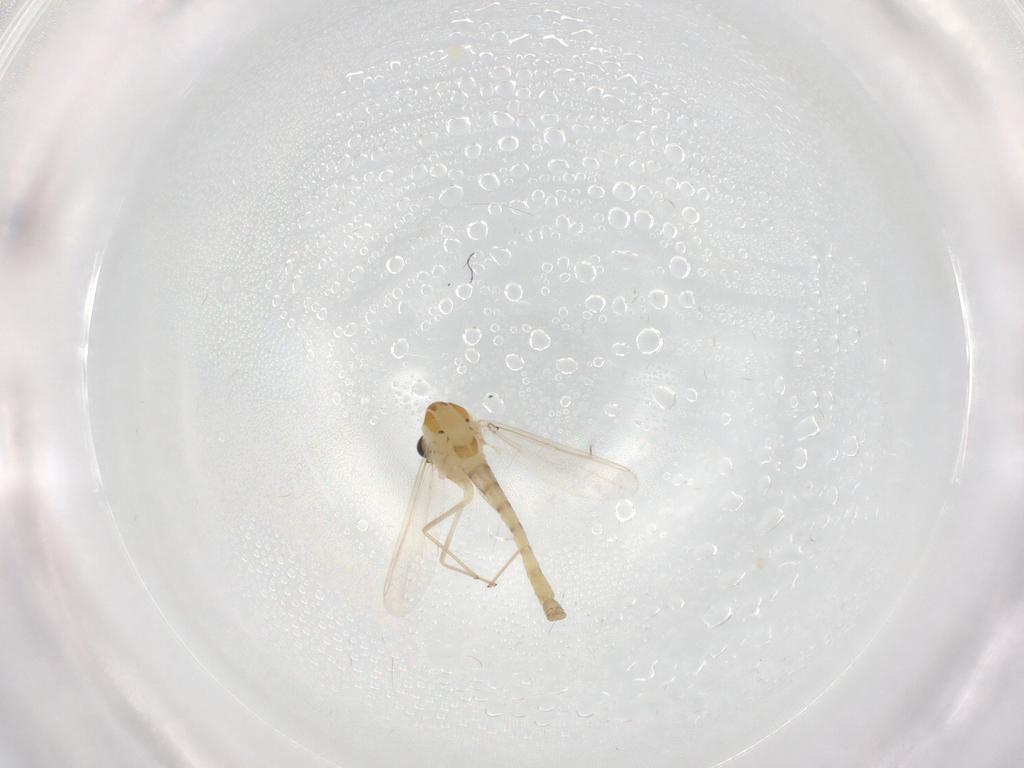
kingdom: Animalia
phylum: Arthropoda
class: Insecta
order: Diptera
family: Chironomidae
